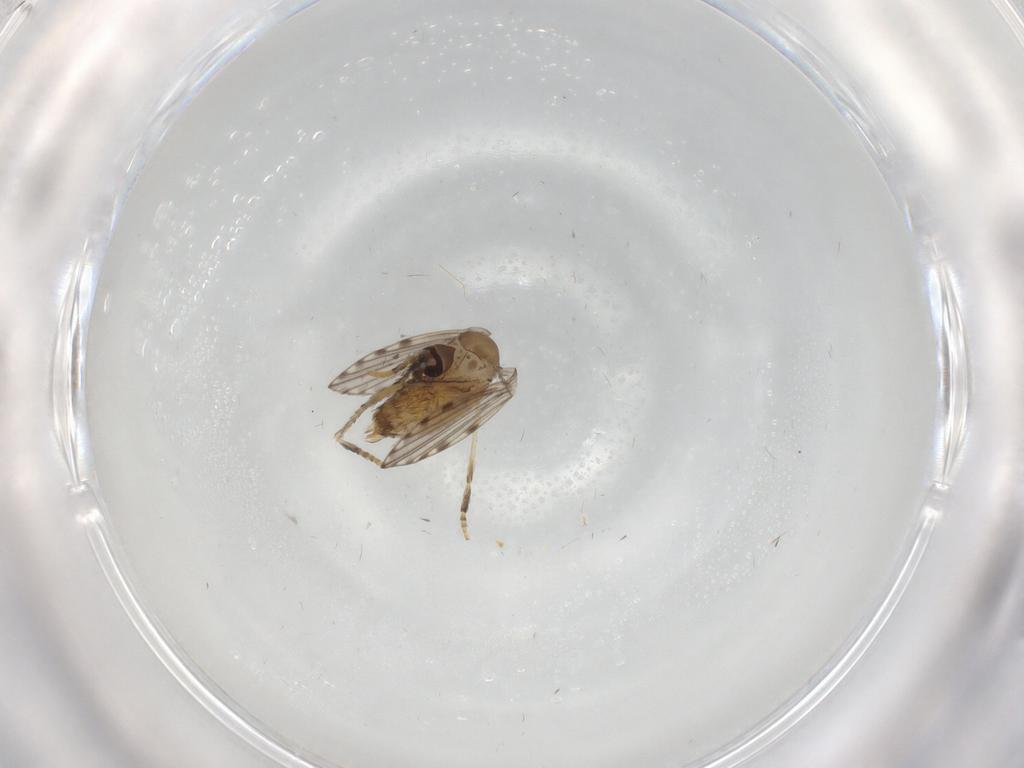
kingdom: Animalia
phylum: Arthropoda
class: Insecta
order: Diptera
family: Psychodidae
